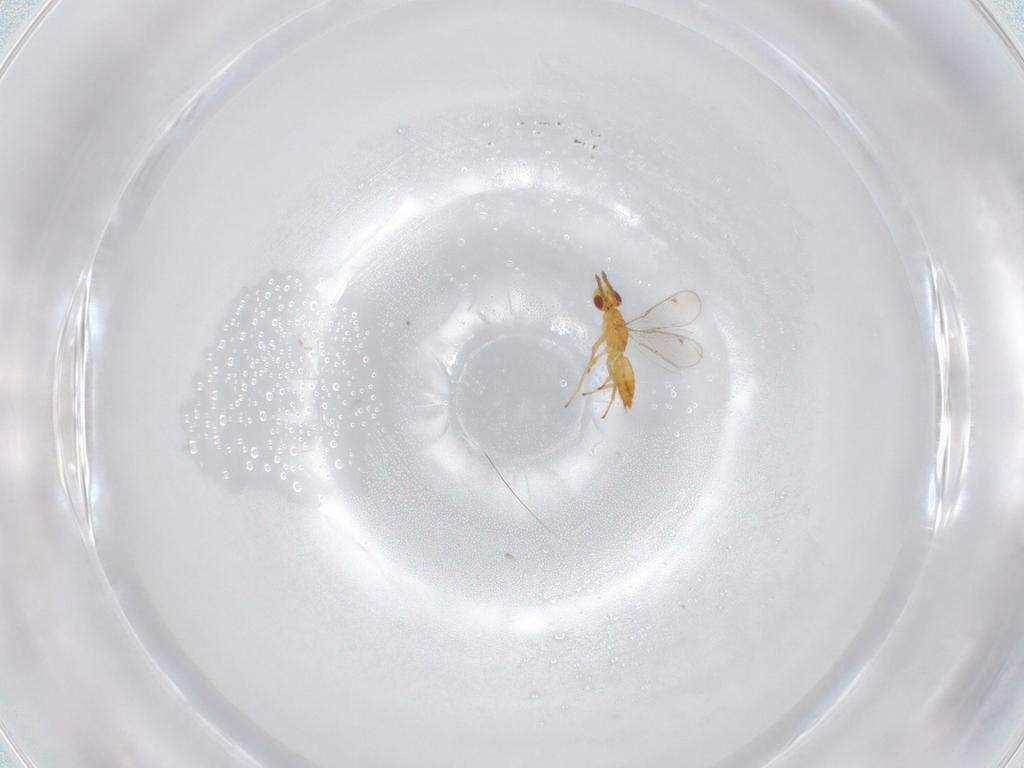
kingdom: Animalia
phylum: Arthropoda
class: Insecta
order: Hymenoptera
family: Eulophidae
